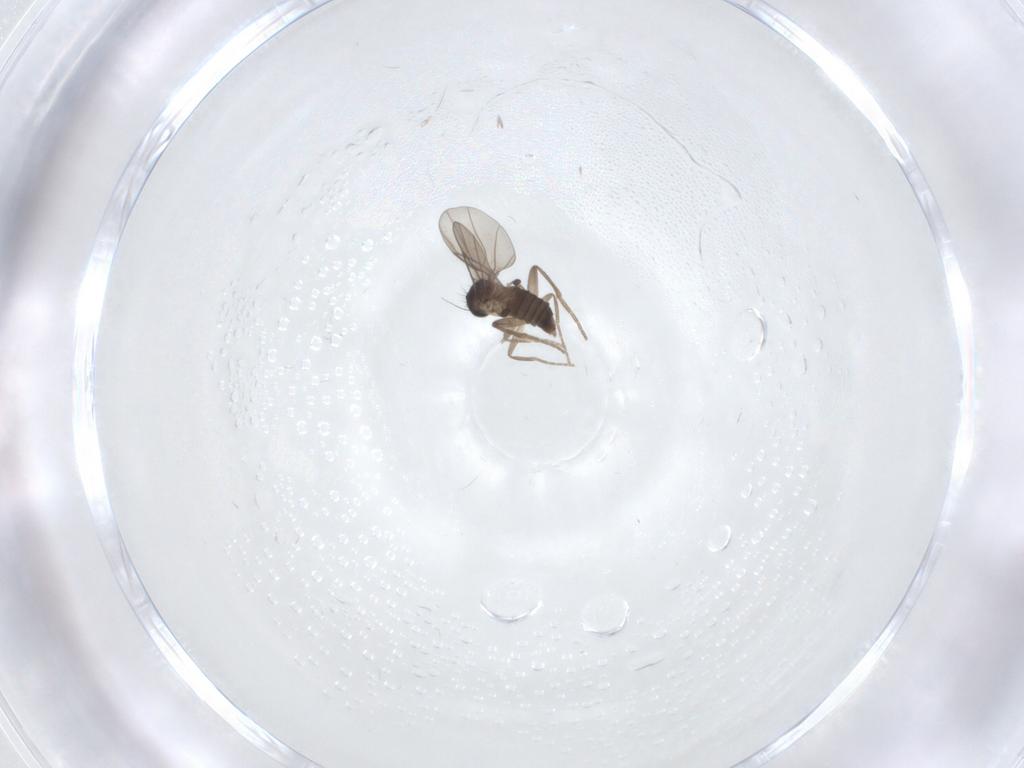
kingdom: Animalia
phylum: Arthropoda
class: Insecta
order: Diptera
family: Phoridae
